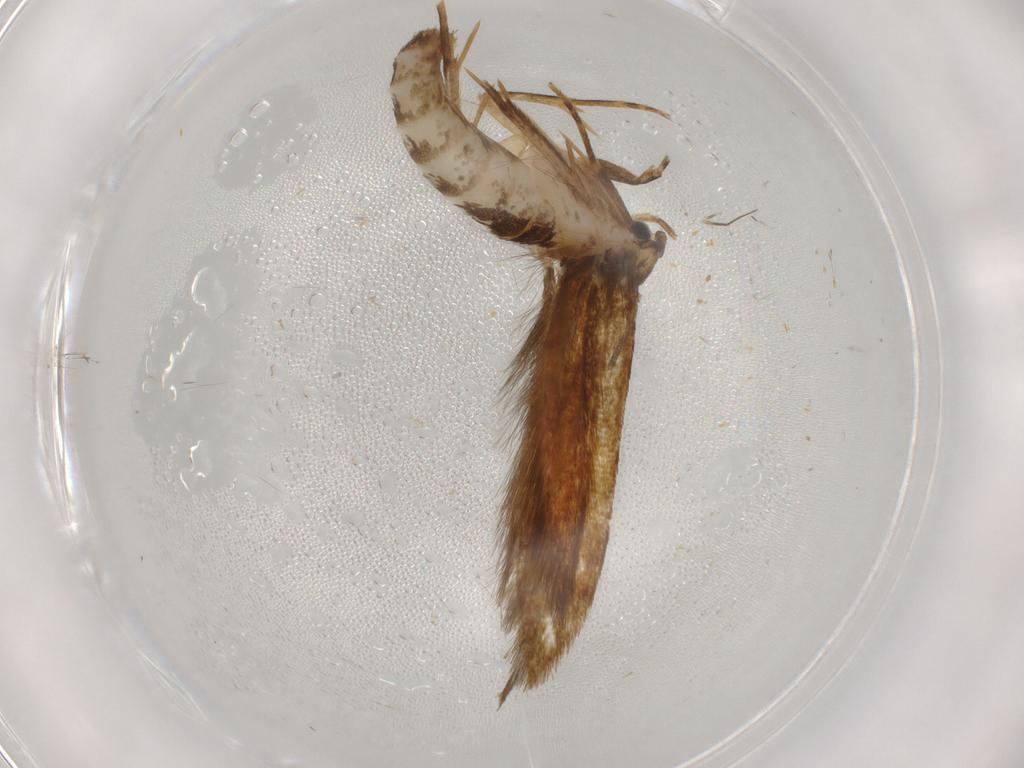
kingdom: Animalia
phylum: Arthropoda
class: Insecta
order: Lepidoptera
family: Tineidae
